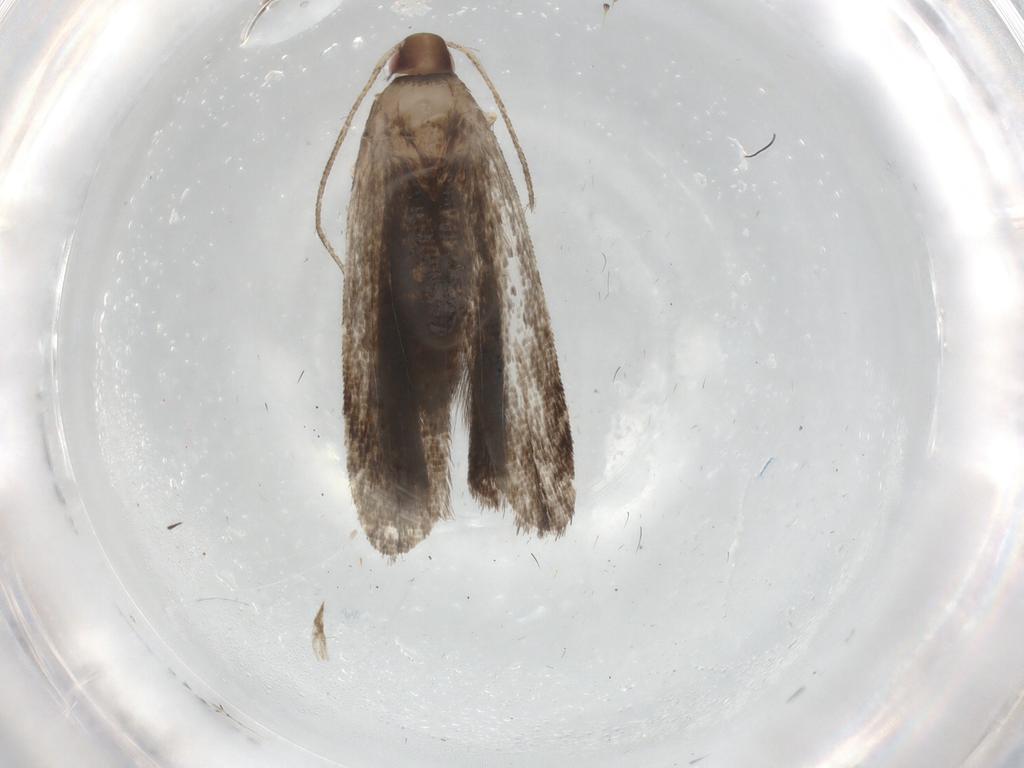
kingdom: Animalia
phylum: Arthropoda
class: Insecta
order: Lepidoptera
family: Gelechiidae
